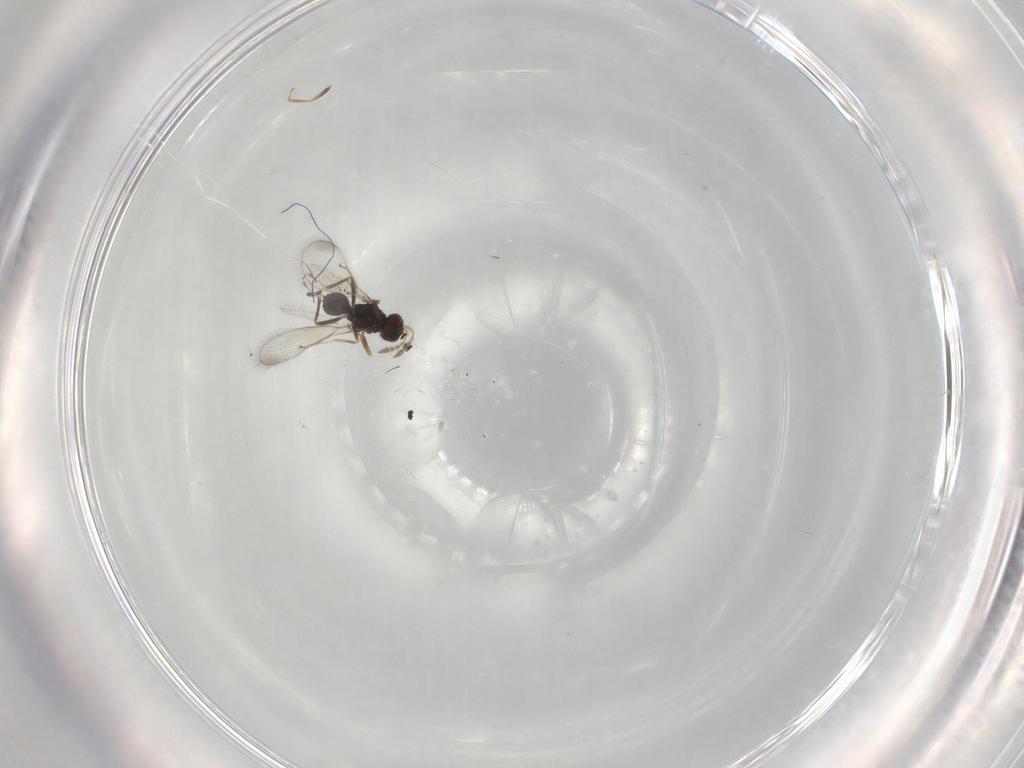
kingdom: Animalia
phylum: Arthropoda
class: Insecta
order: Hymenoptera
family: Eulophidae
